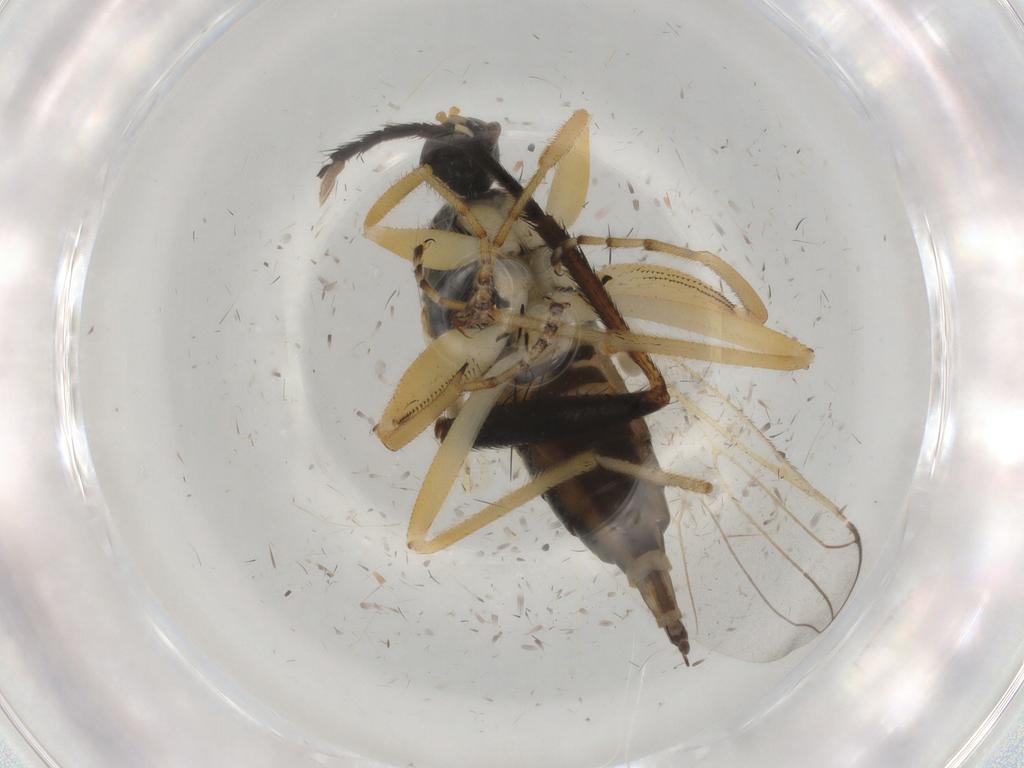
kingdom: Animalia
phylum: Arthropoda
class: Insecta
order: Diptera
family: Hybotidae
